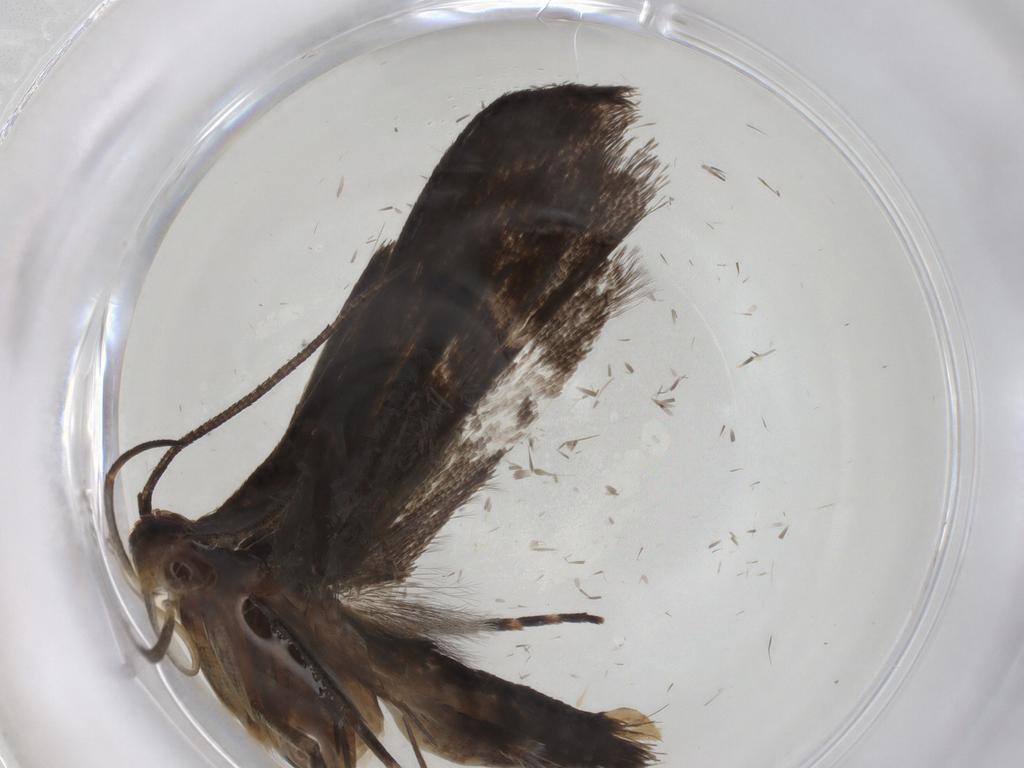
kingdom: Animalia
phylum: Arthropoda
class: Insecta
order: Lepidoptera
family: Gelechiidae
